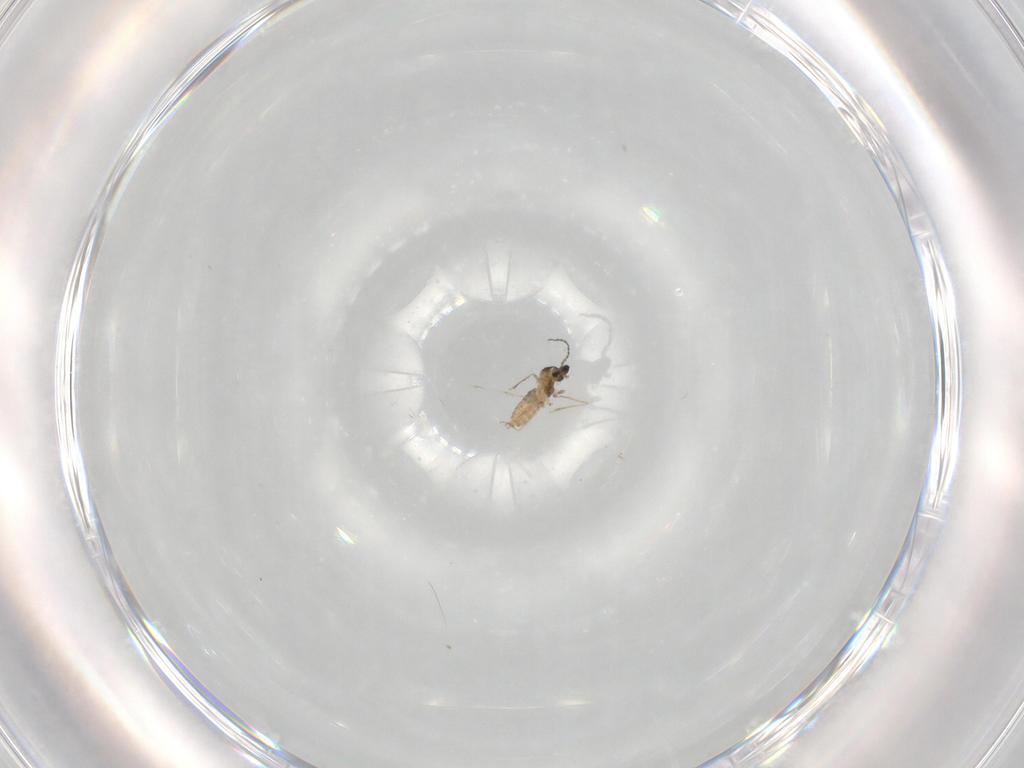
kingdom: Animalia
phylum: Arthropoda
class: Insecta
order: Diptera
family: Cecidomyiidae
